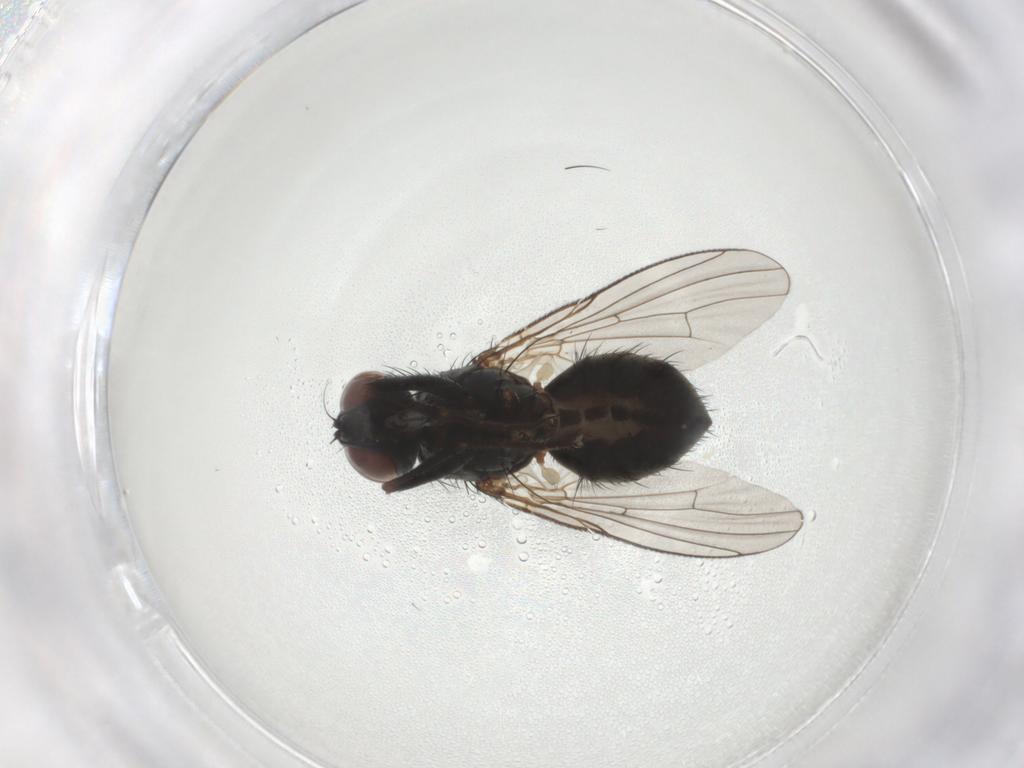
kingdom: Animalia
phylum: Arthropoda
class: Insecta
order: Diptera
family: Muscidae
